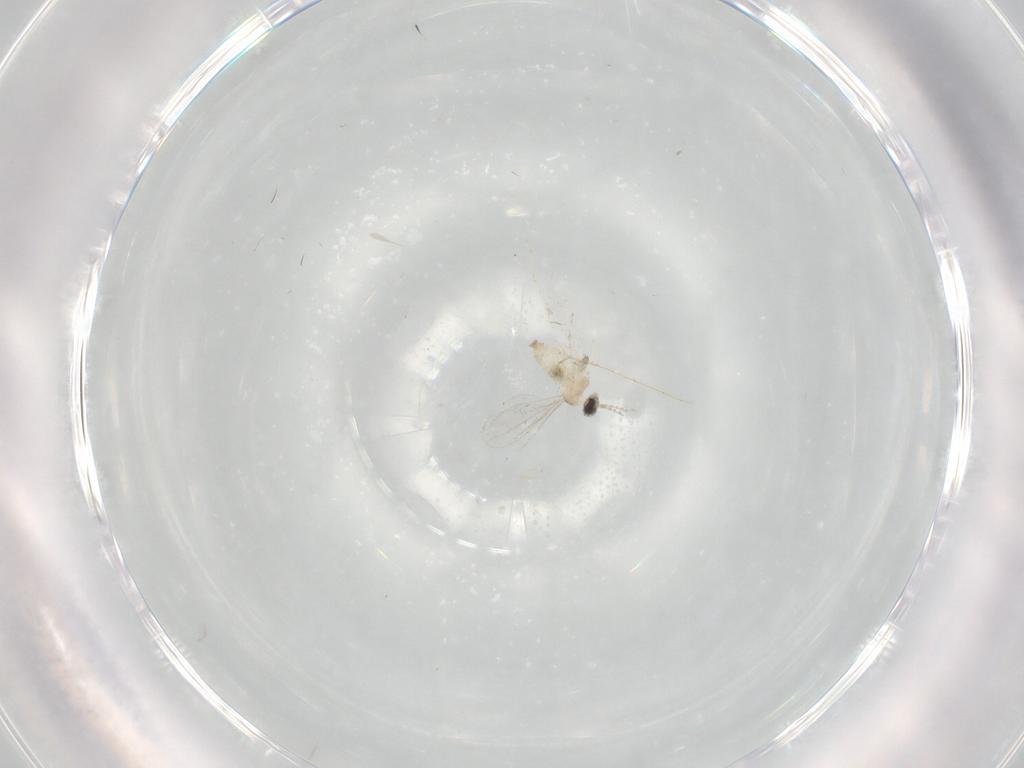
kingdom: Animalia
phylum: Arthropoda
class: Insecta
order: Diptera
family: Cecidomyiidae
